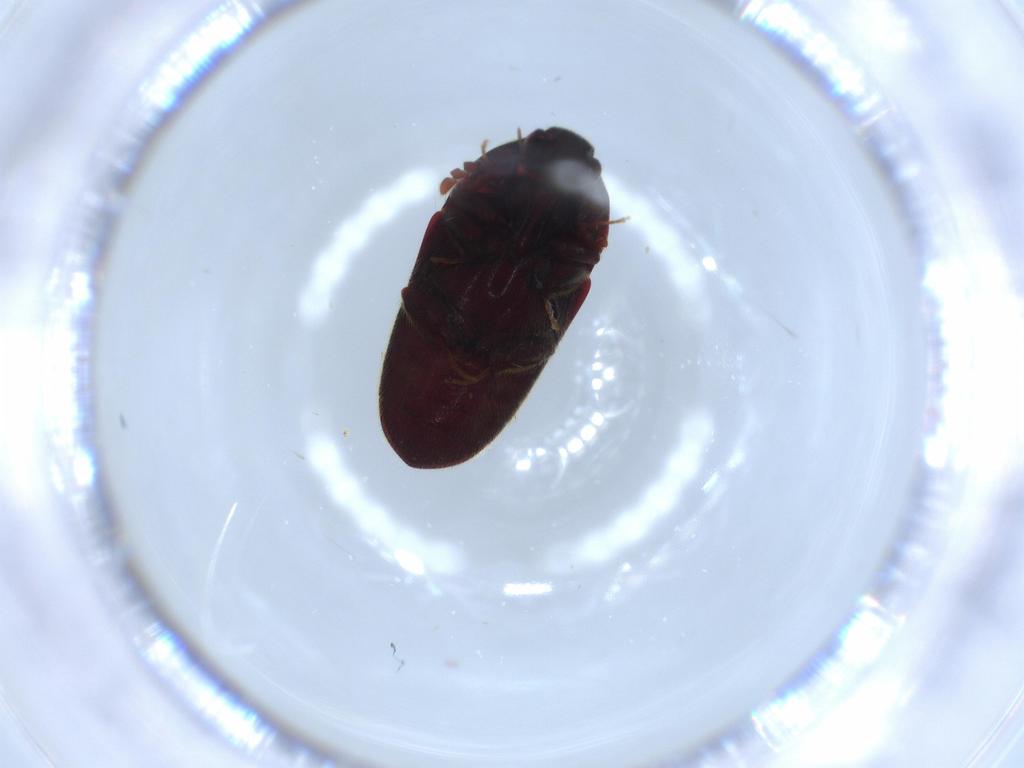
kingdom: Animalia
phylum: Arthropoda
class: Insecta
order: Coleoptera
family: Throscidae
